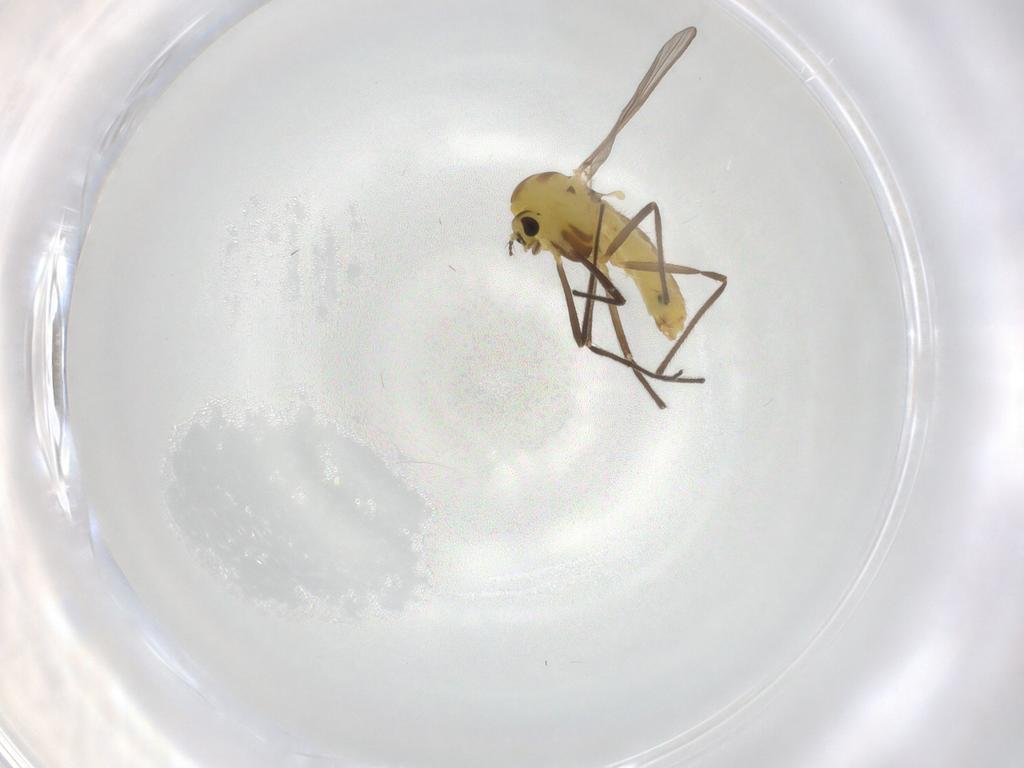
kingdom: Animalia
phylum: Arthropoda
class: Insecta
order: Diptera
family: Chironomidae
